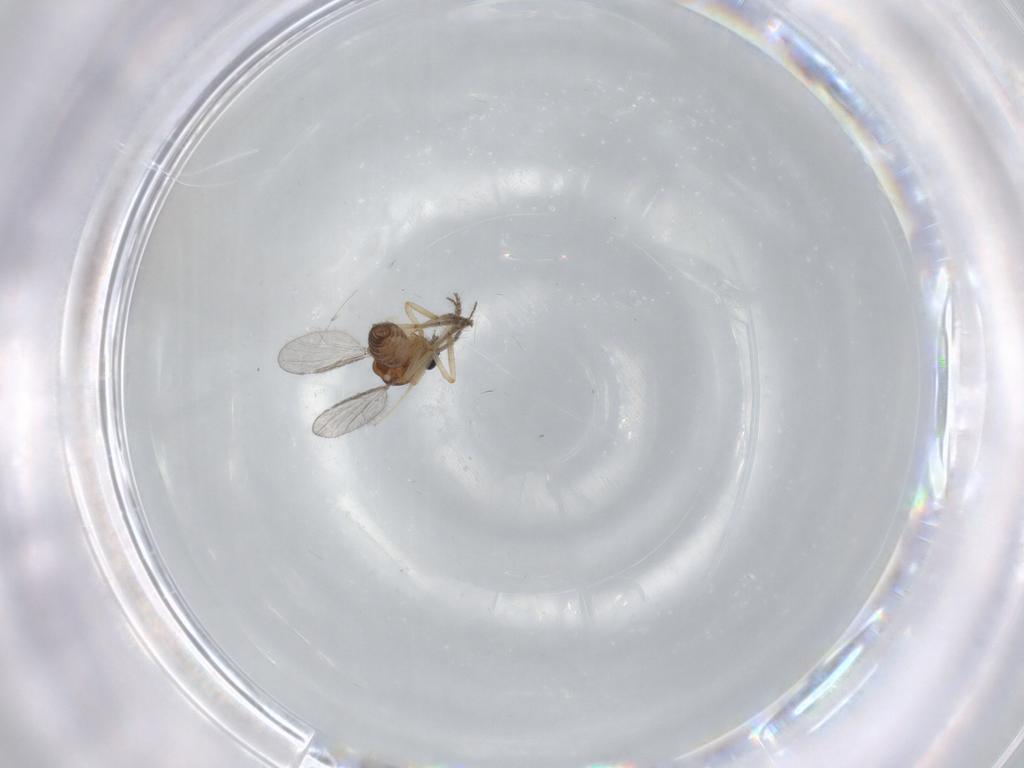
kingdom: Animalia
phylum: Arthropoda
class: Insecta
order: Diptera
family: Ceratopogonidae
